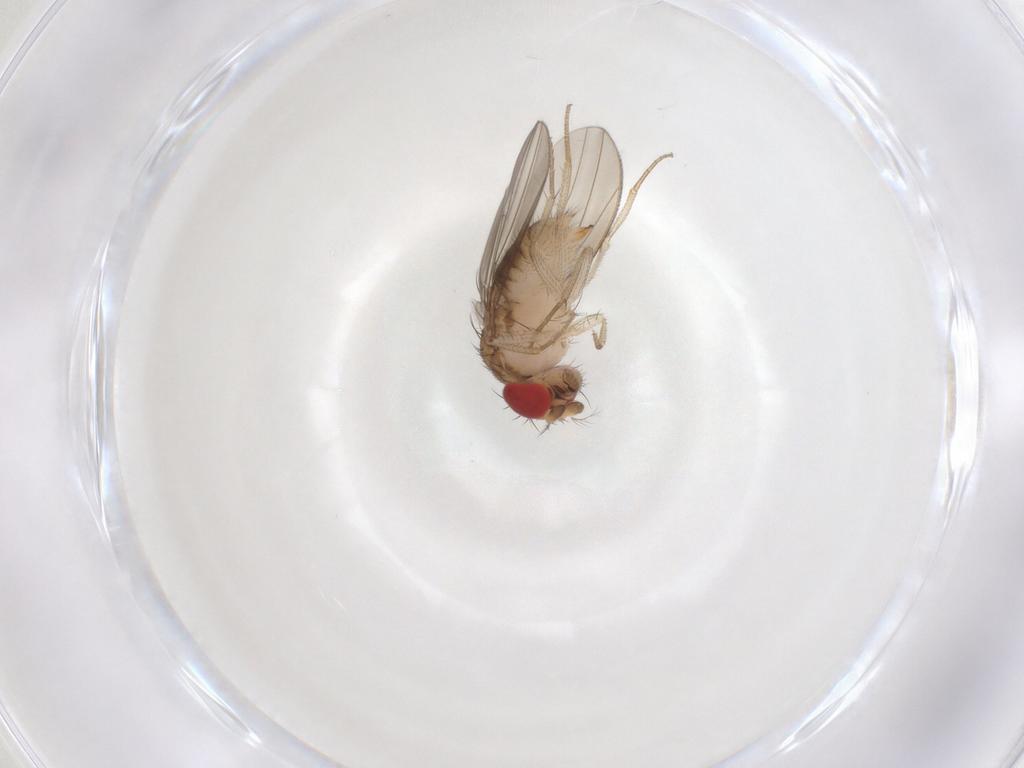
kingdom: Animalia
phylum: Arthropoda
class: Insecta
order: Diptera
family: Drosophilidae
